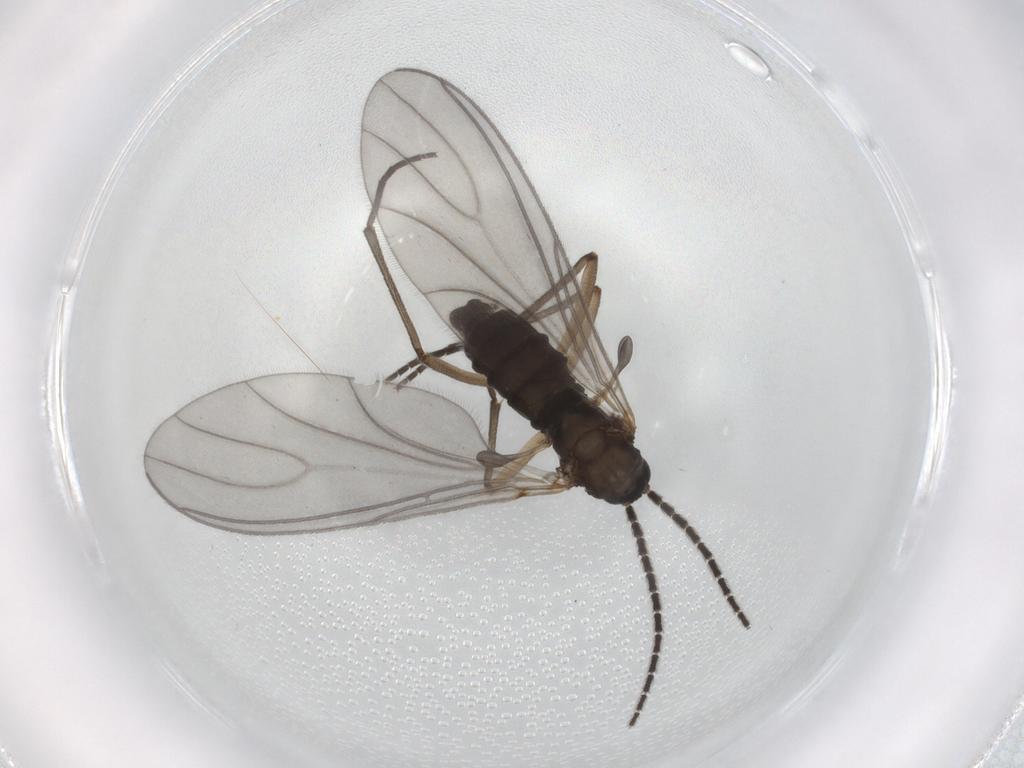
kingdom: Animalia
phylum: Arthropoda
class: Insecta
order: Diptera
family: Sciaridae
